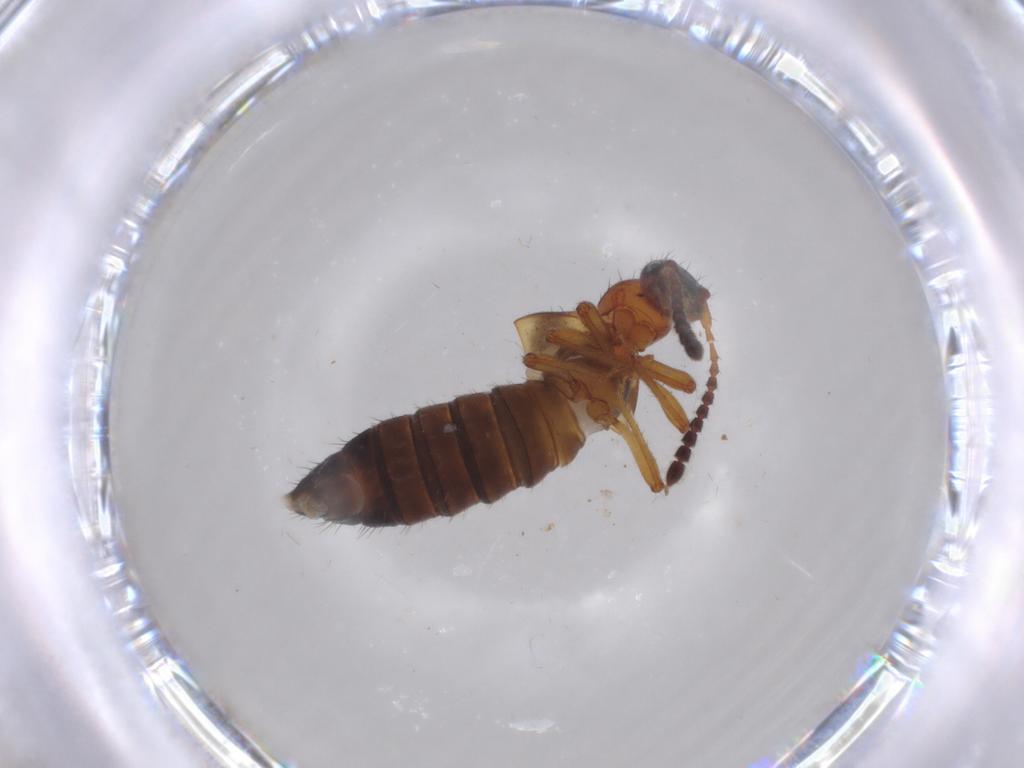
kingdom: Animalia
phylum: Arthropoda
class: Insecta
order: Coleoptera
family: Staphylinidae
